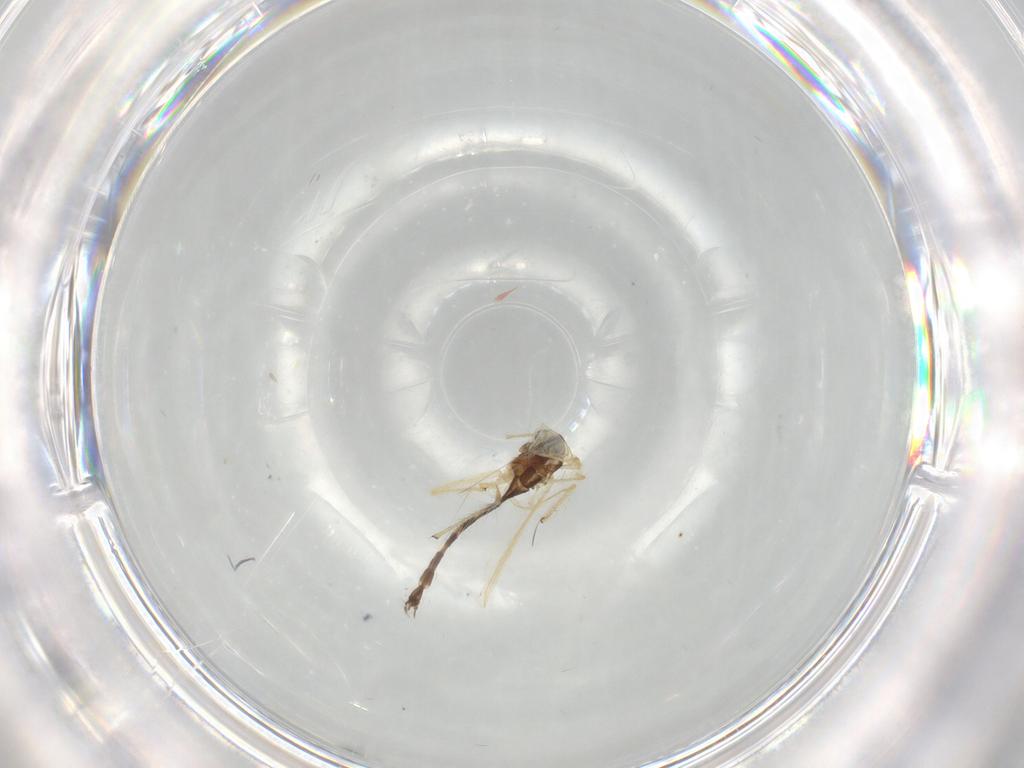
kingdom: Animalia
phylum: Arthropoda
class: Insecta
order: Diptera
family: Chironomidae
